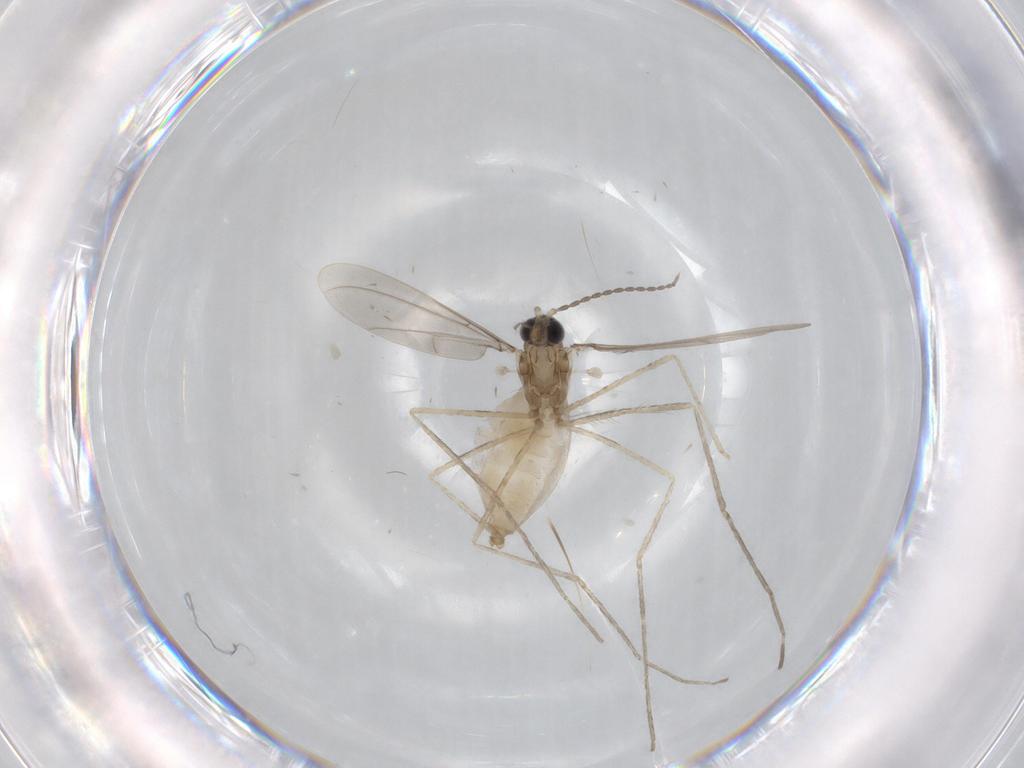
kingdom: Animalia
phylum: Arthropoda
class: Insecta
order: Diptera
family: Cecidomyiidae
